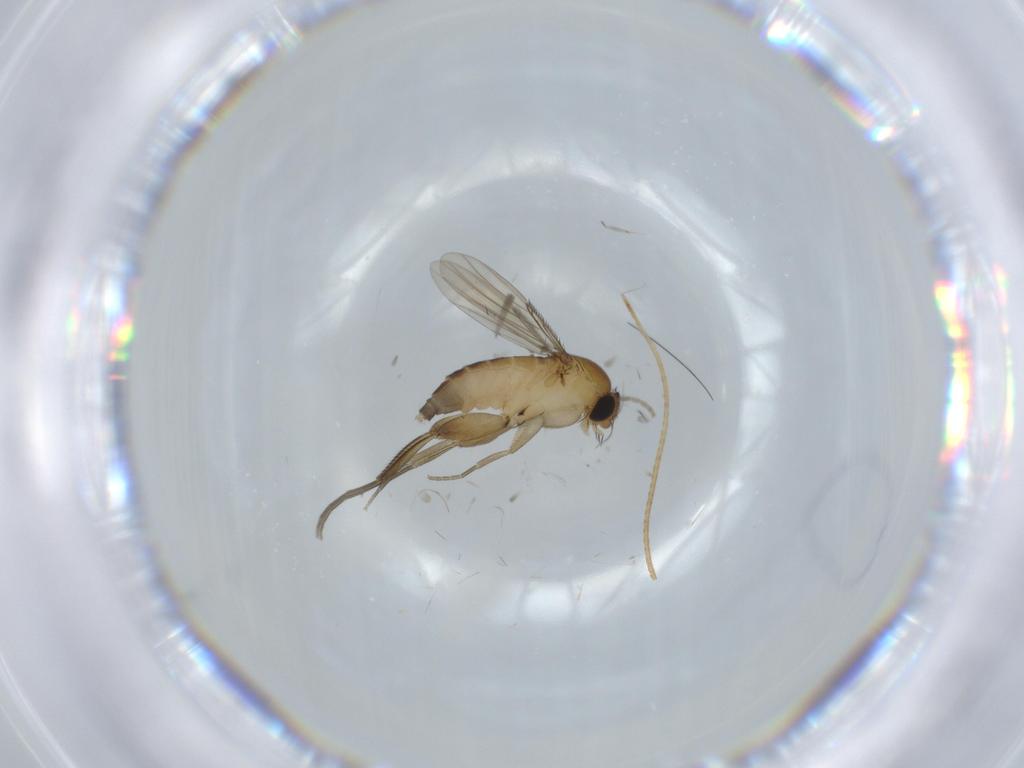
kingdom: Animalia
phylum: Arthropoda
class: Insecta
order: Diptera
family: Phoridae
